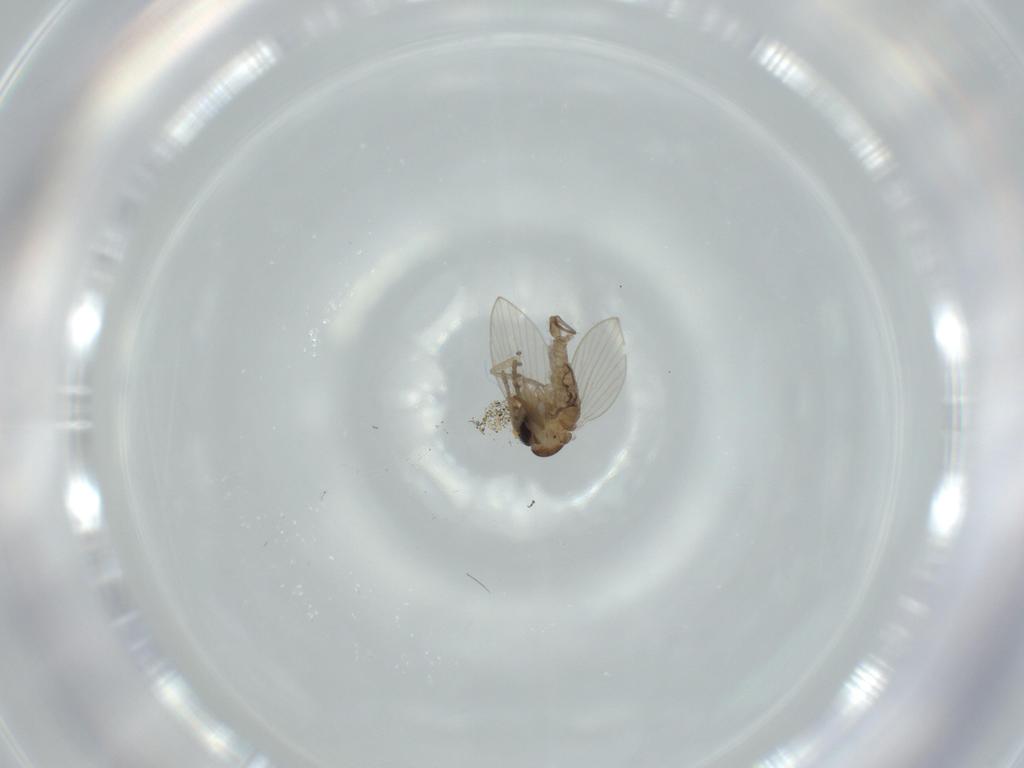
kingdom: Animalia
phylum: Arthropoda
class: Insecta
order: Diptera
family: Psychodidae
